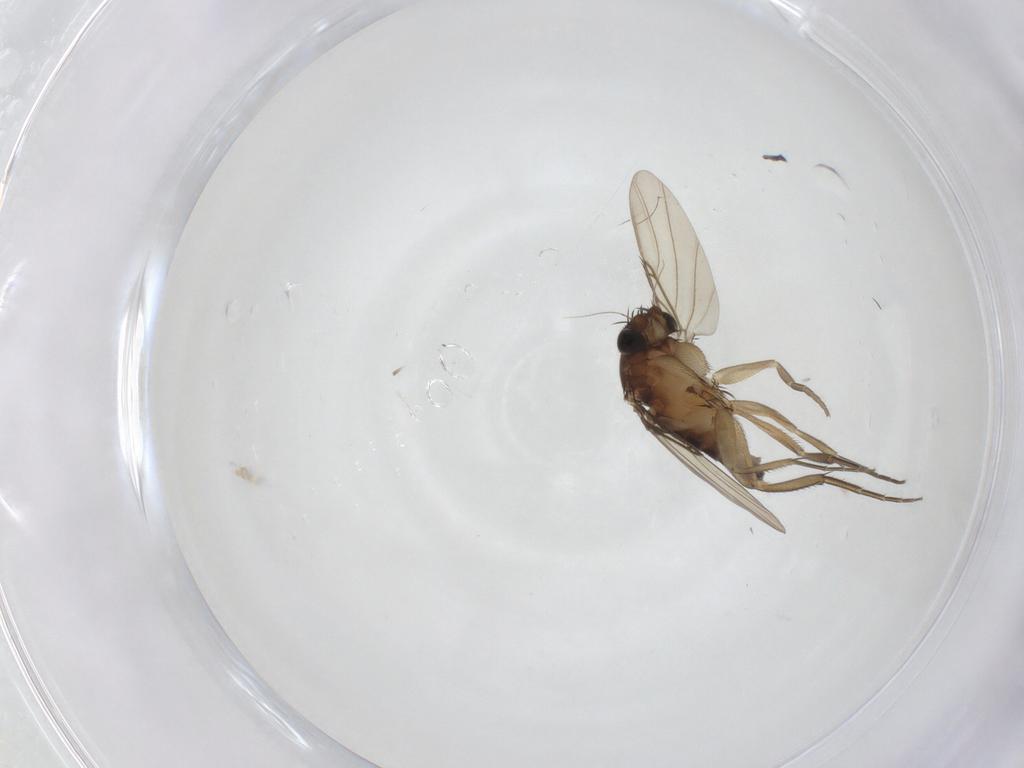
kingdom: Animalia
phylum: Arthropoda
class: Insecta
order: Diptera
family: Phoridae
